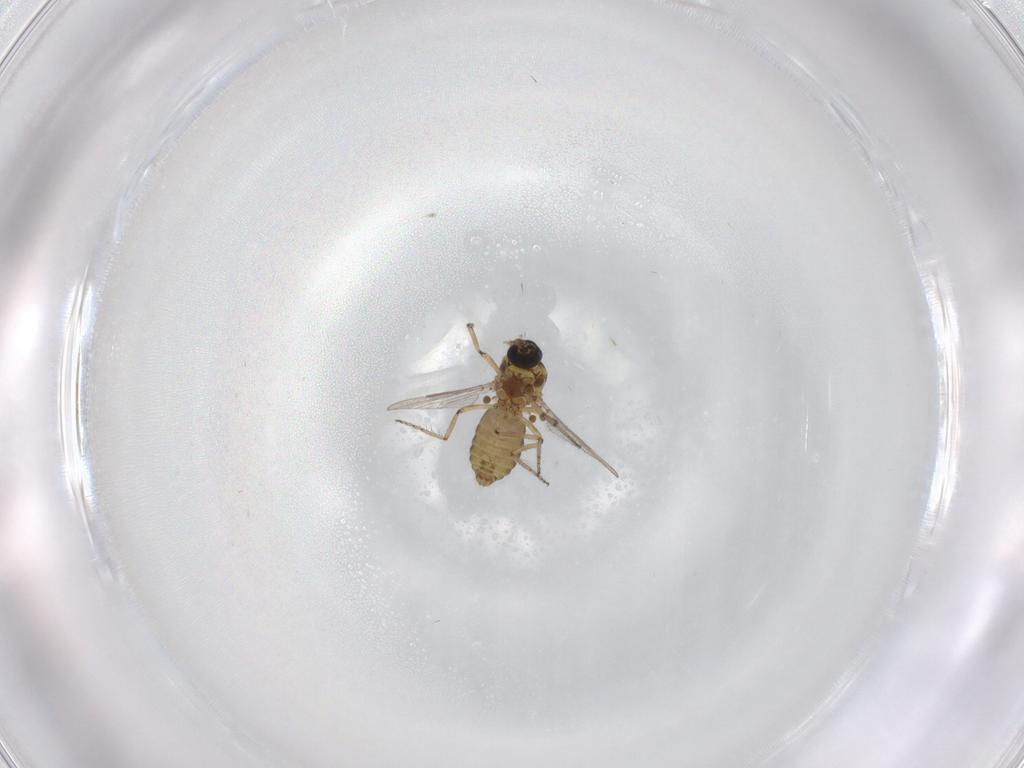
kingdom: Animalia
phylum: Arthropoda
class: Insecta
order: Diptera
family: Ceratopogonidae
